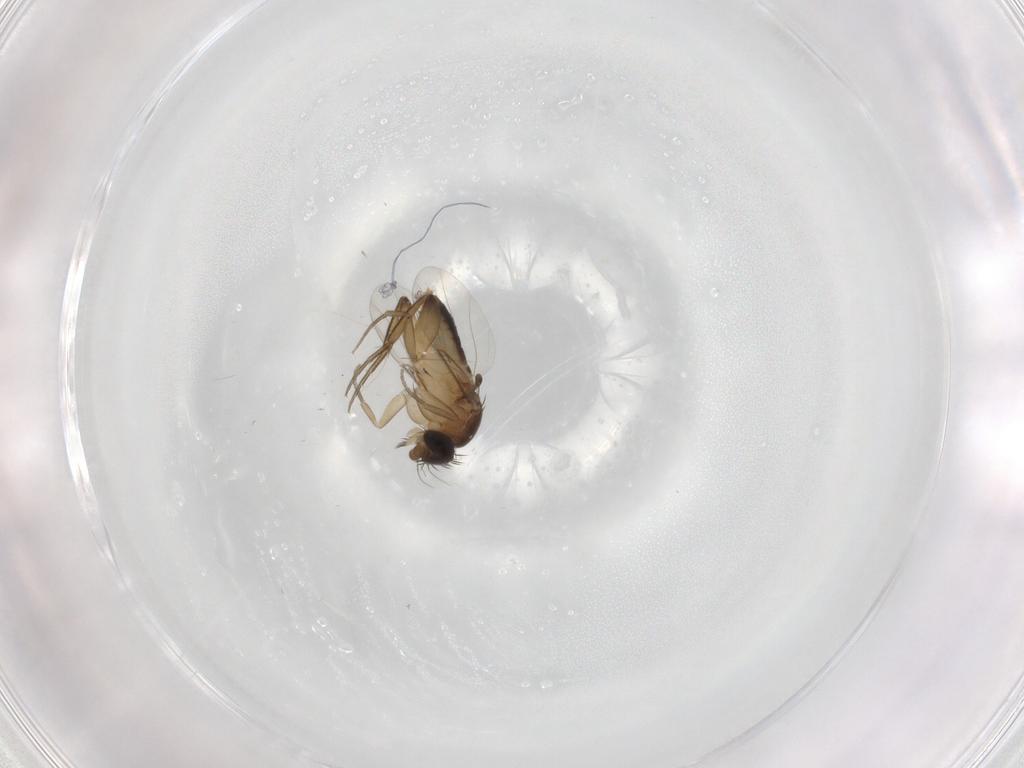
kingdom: Animalia
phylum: Arthropoda
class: Insecta
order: Diptera
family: Phoridae
